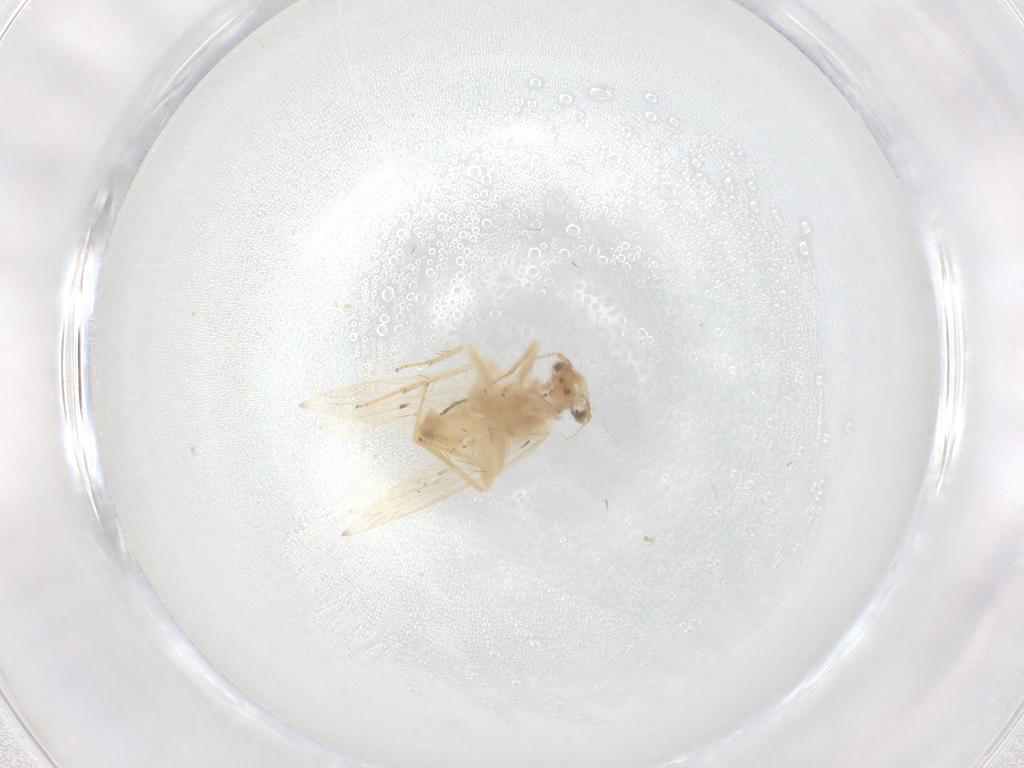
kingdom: Animalia
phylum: Arthropoda
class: Insecta
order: Psocodea
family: Lepidopsocidae
